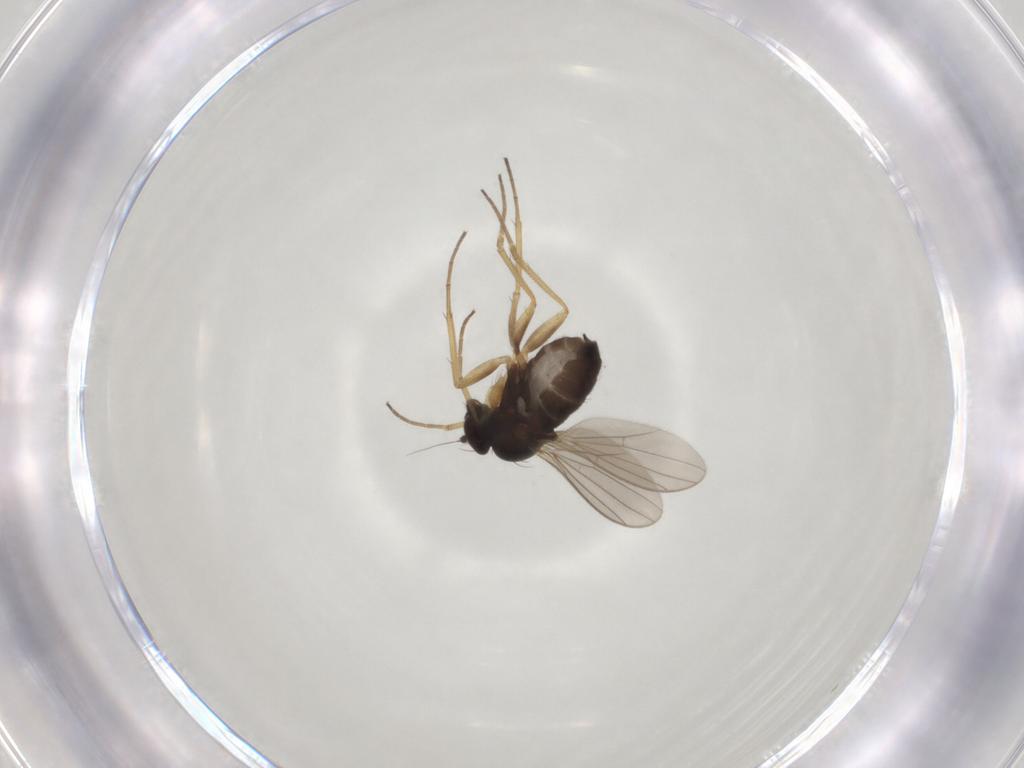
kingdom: Animalia
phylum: Arthropoda
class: Insecta
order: Diptera
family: Dolichopodidae
